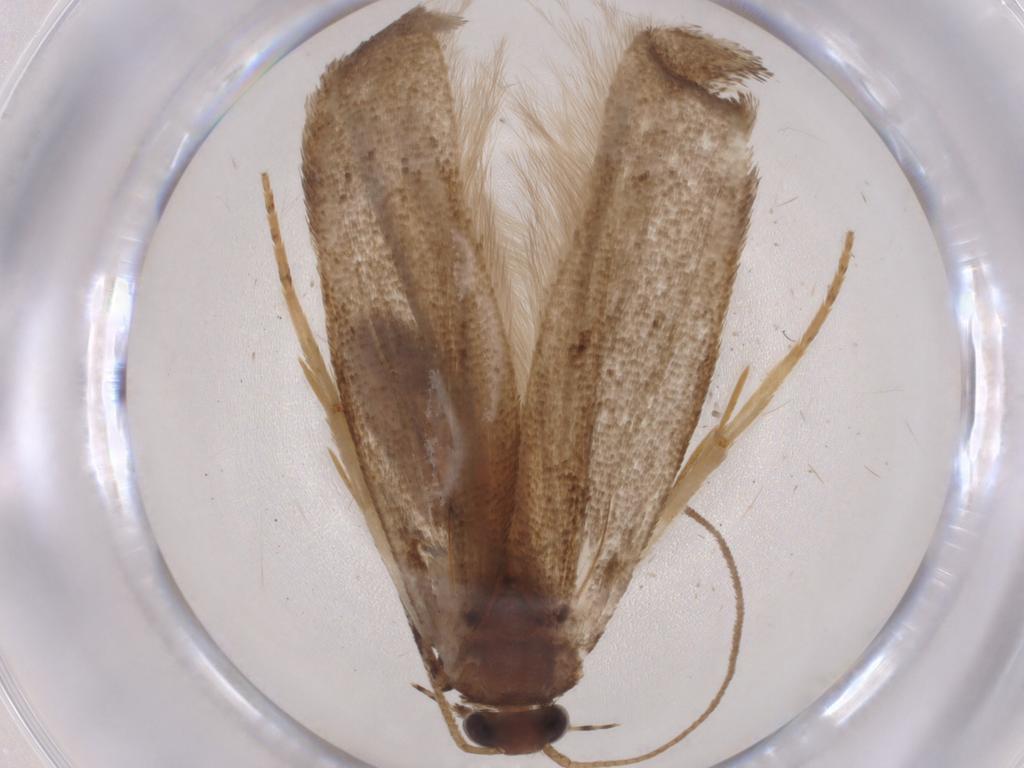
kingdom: Animalia
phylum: Arthropoda
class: Insecta
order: Lepidoptera
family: Gelechiidae
